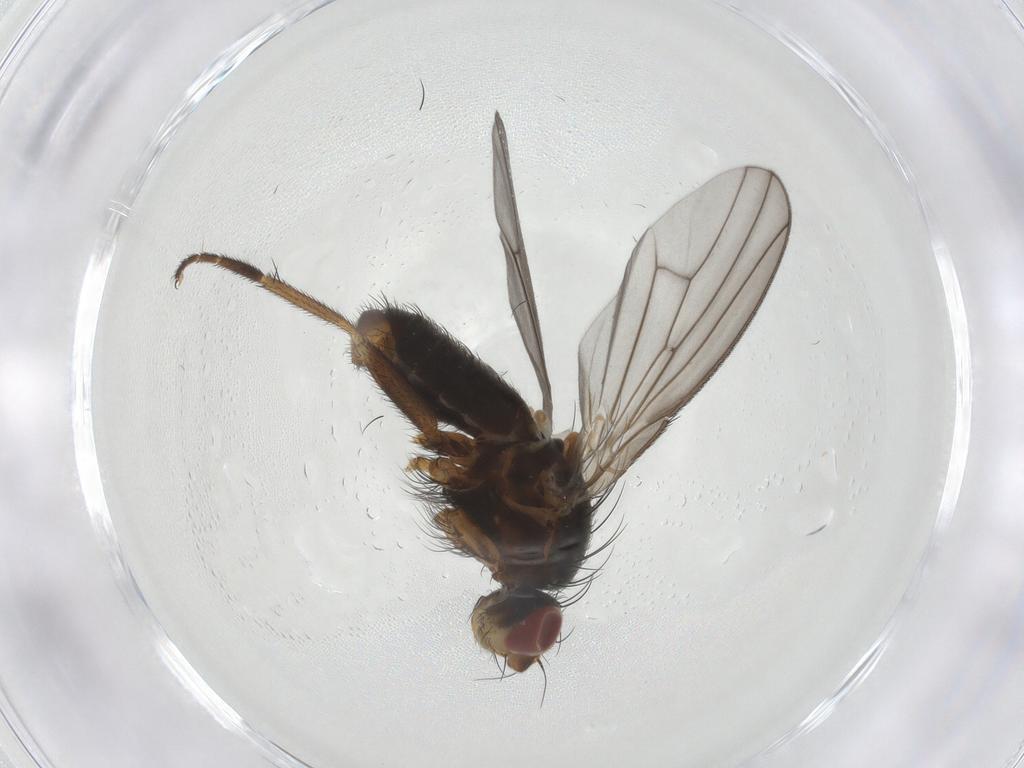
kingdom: Animalia
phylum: Arthropoda
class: Insecta
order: Diptera
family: Heleomyzidae
